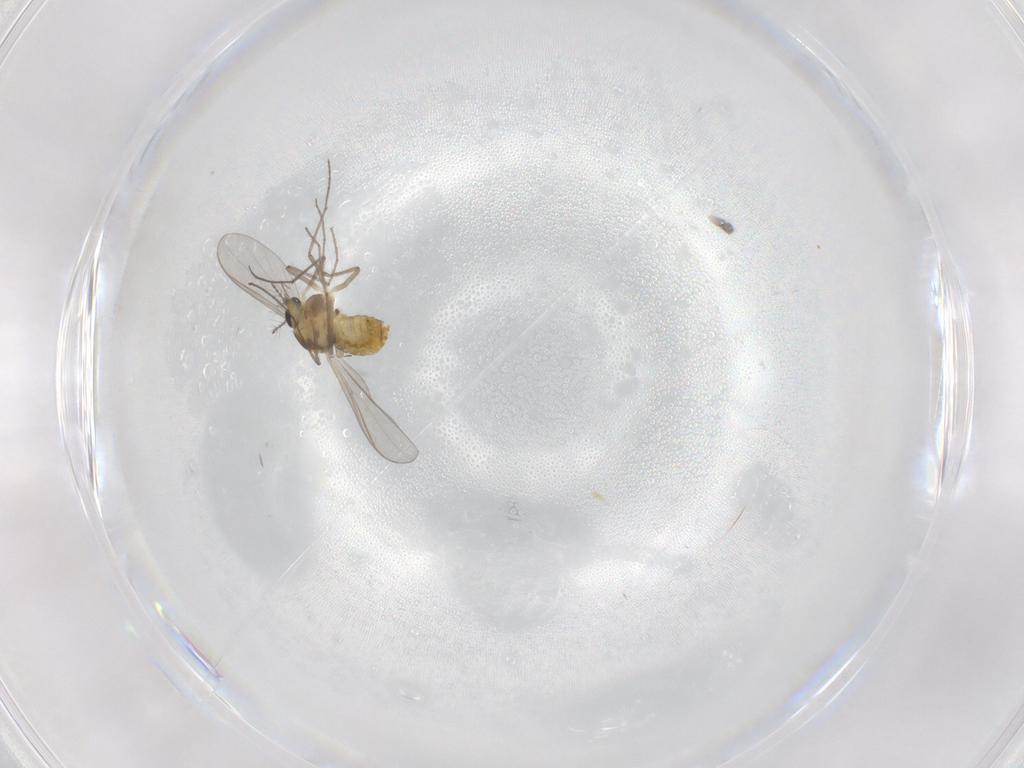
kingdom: Animalia
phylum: Arthropoda
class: Insecta
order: Diptera
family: Chironomidae
